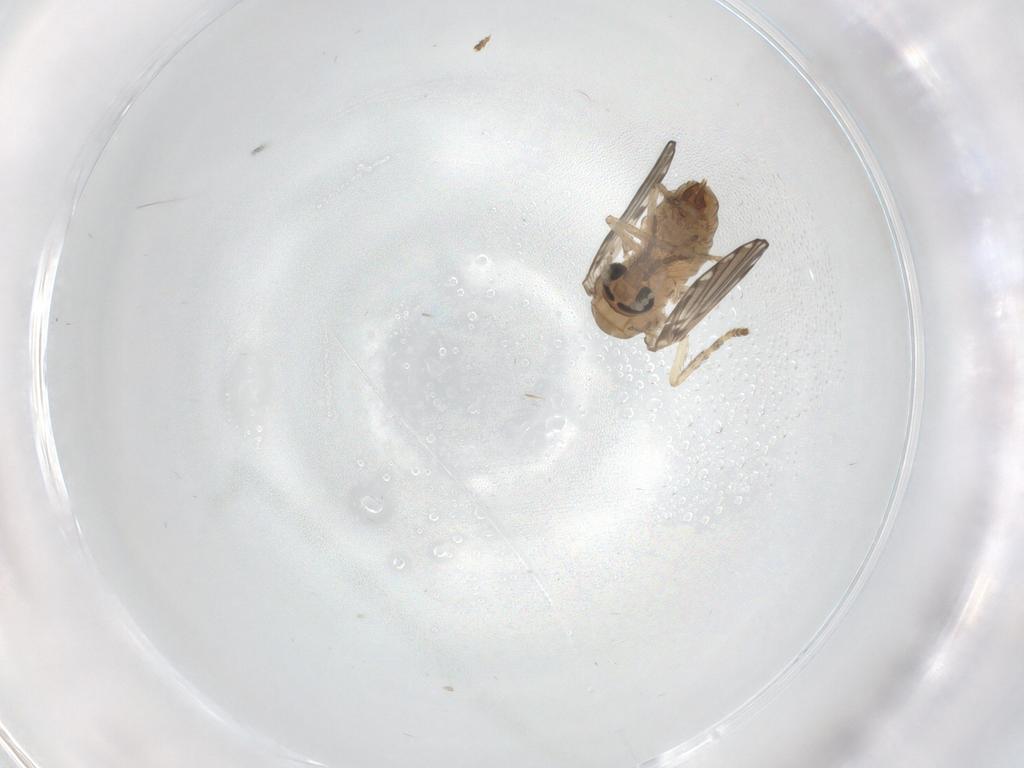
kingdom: Animalia
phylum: Arthropoda
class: Insecta
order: Diptera
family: Psychodidae
